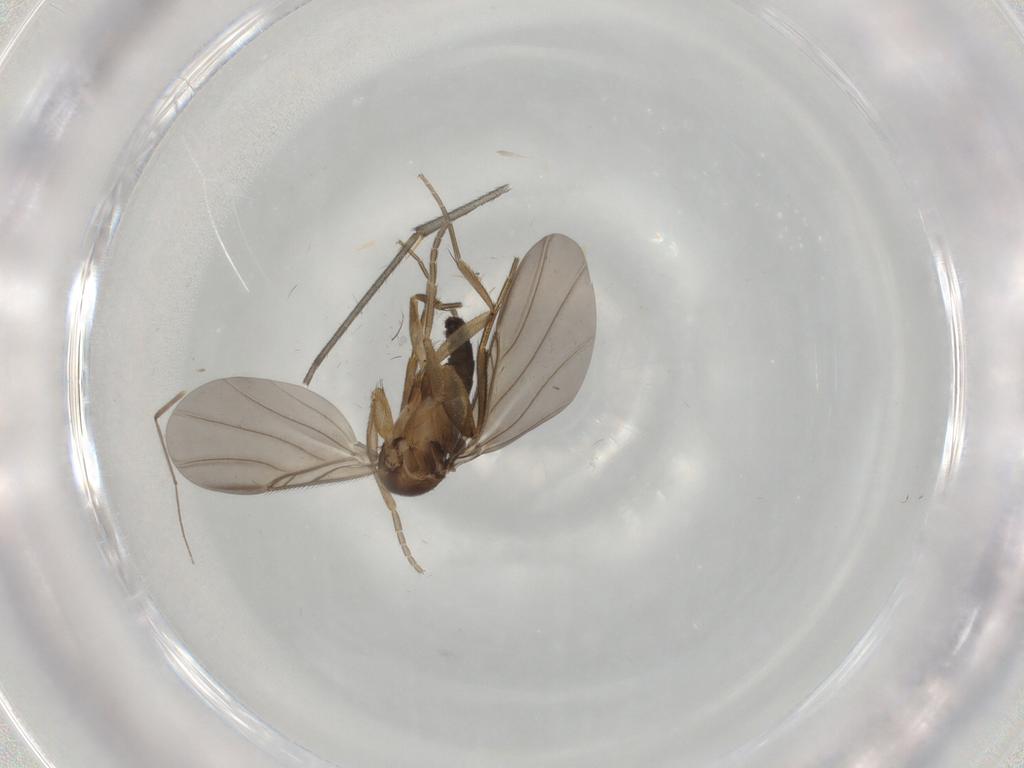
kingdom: Animalia
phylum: Arthropoda
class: Insecta
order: Diptera
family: Phoridae
